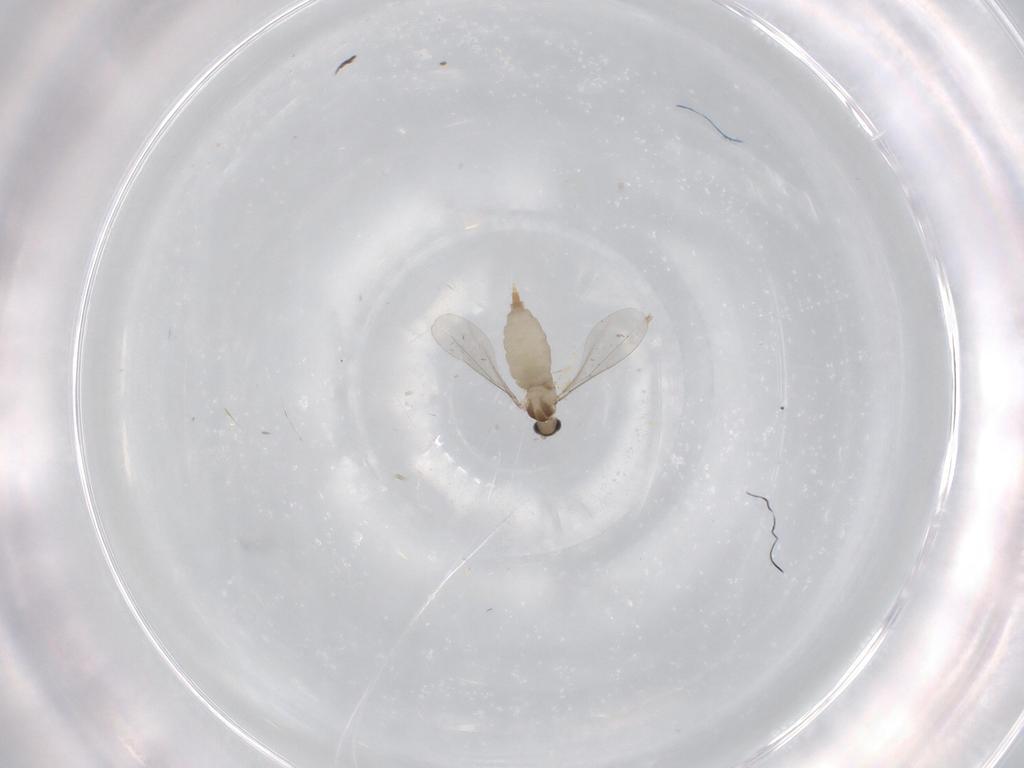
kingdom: Animalia
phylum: Arthropoda
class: Insecta
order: Diptera
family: Cecidomyiidae
